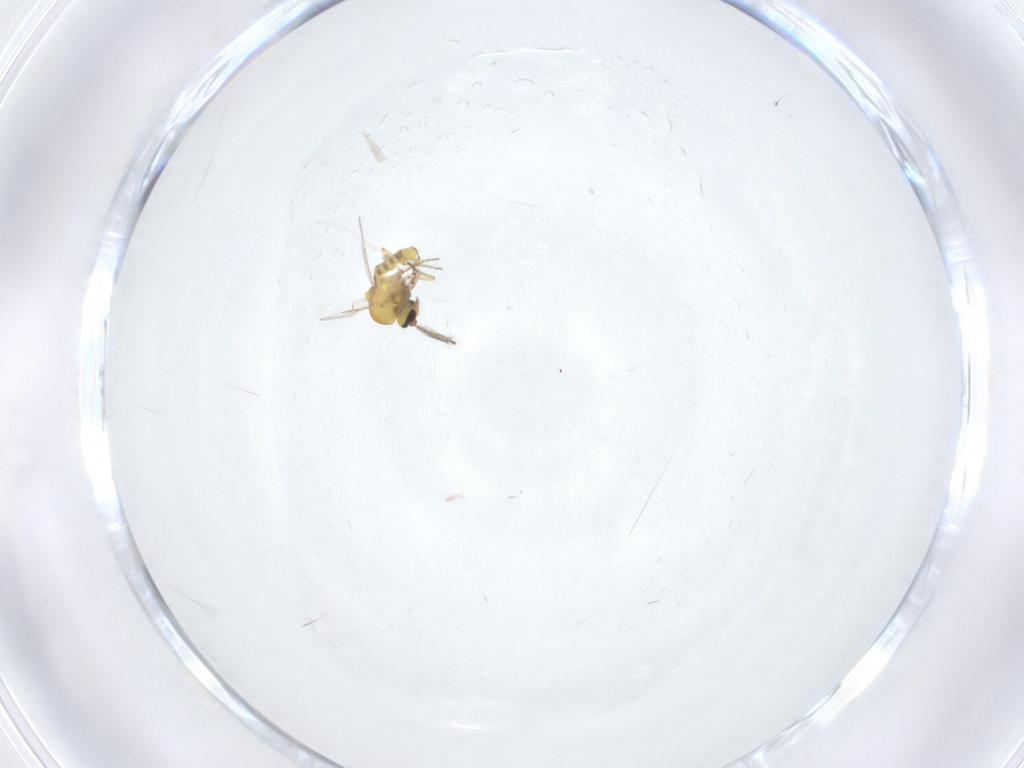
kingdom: Animalia
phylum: Arthropoda
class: Insecta
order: Diptera
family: Ceratopogonidae
